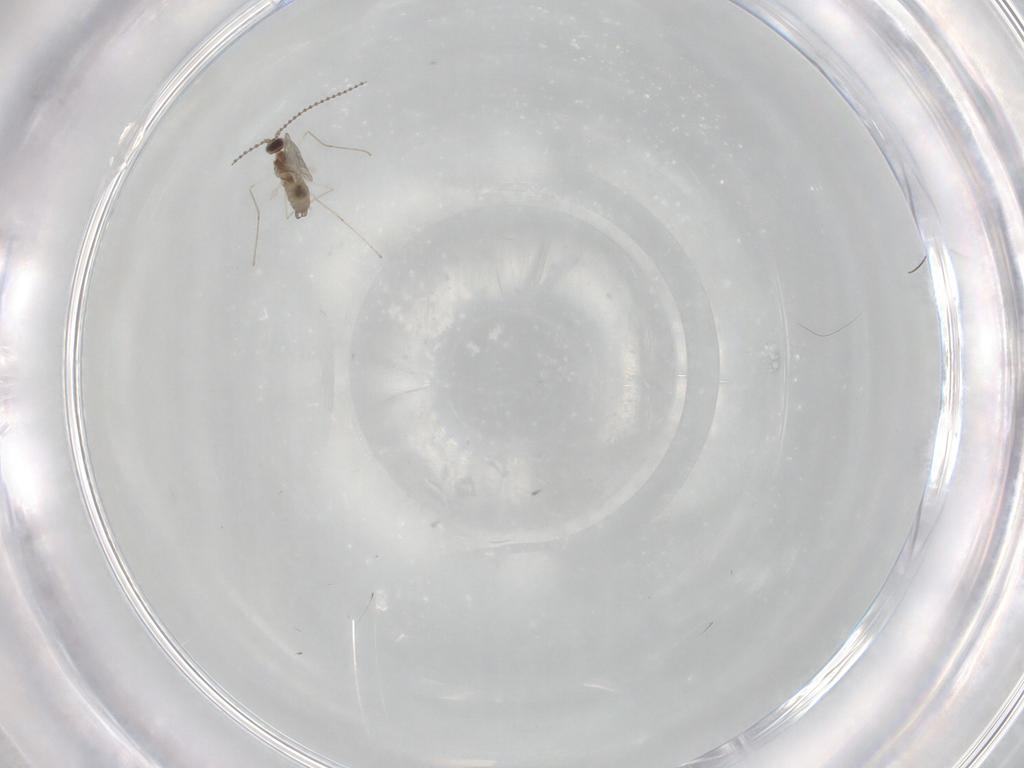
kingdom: Animalia
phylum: Arthropoda
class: Insecta
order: Diptera
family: Cecidomyiidae
